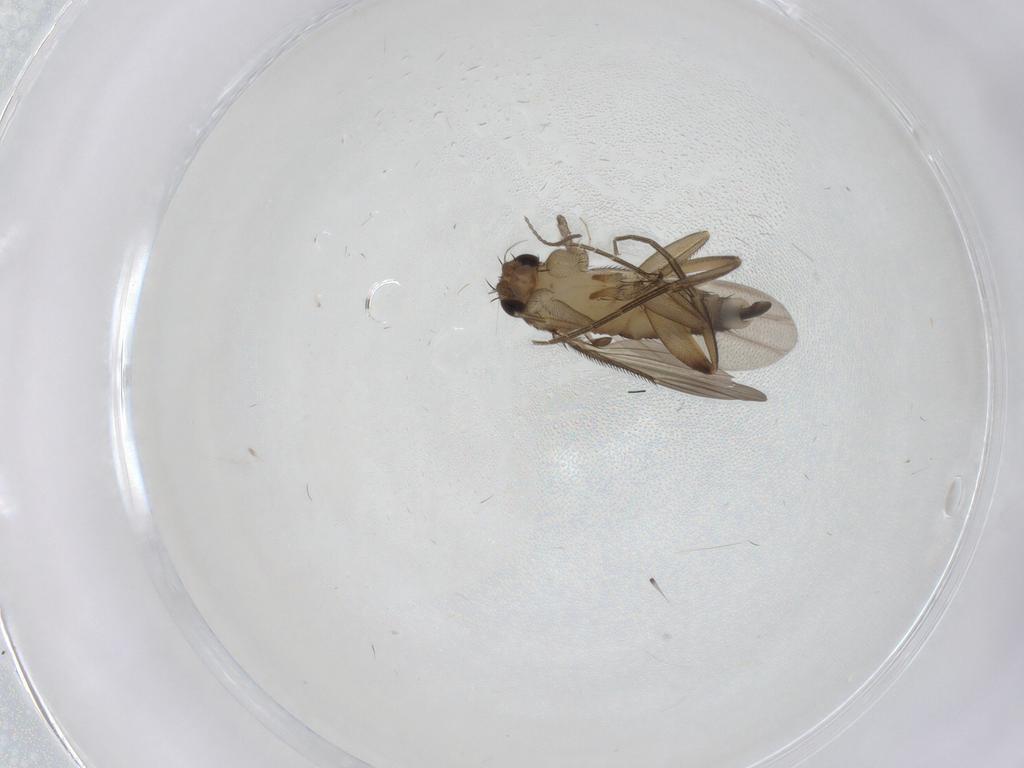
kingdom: Animalia
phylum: Arthropoda
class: Insecta
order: Diptera
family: Phoridae
